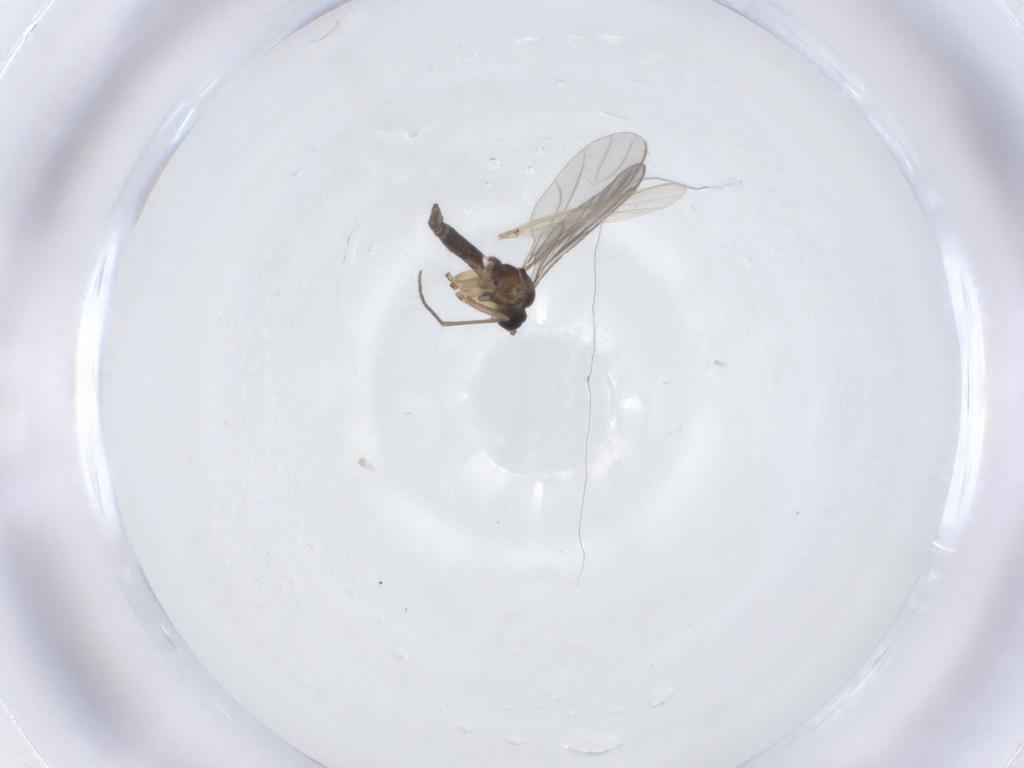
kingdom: Animalia
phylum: Arthropoda
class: Insecta
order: Diptera
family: Sciaridae
